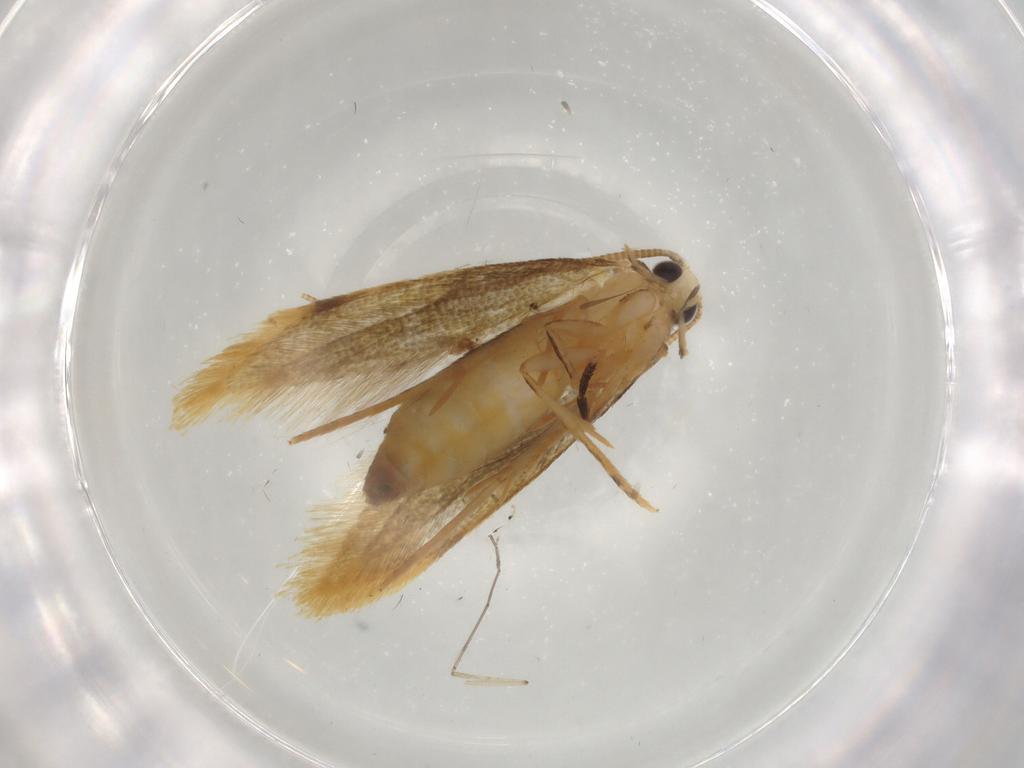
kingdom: Animalia
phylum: Arthropoda
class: Insecta
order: Lepidoptera
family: Tineidae
